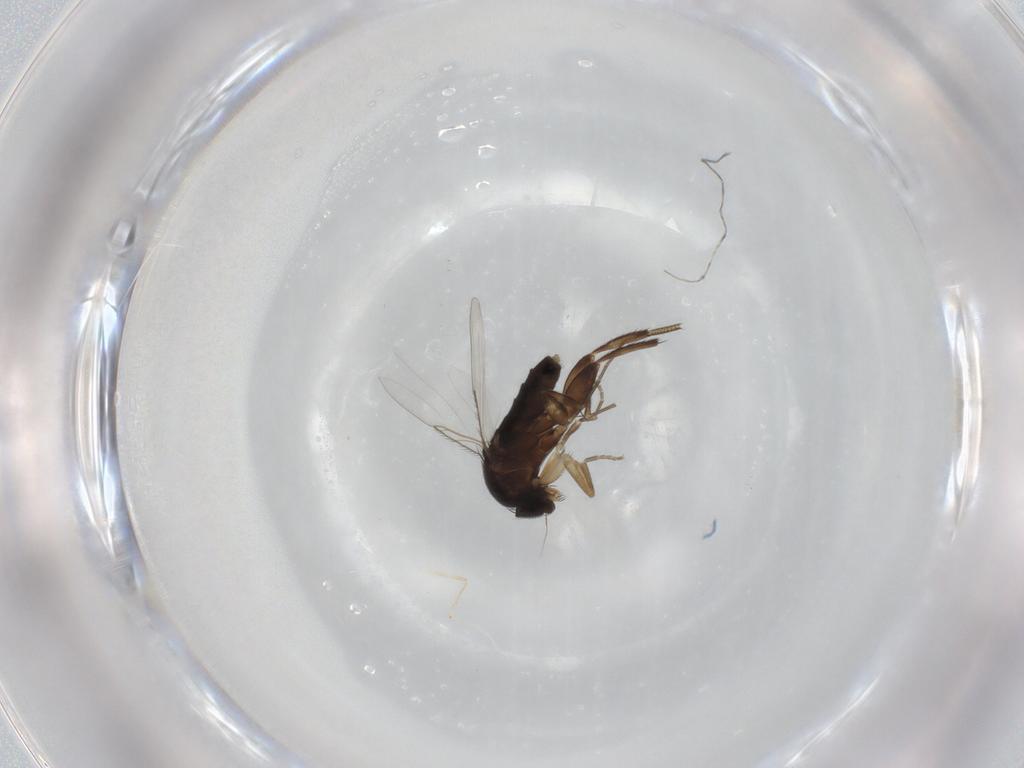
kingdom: Animalia
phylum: Arthropoda
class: Insecta
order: Diptera
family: Phoridae
